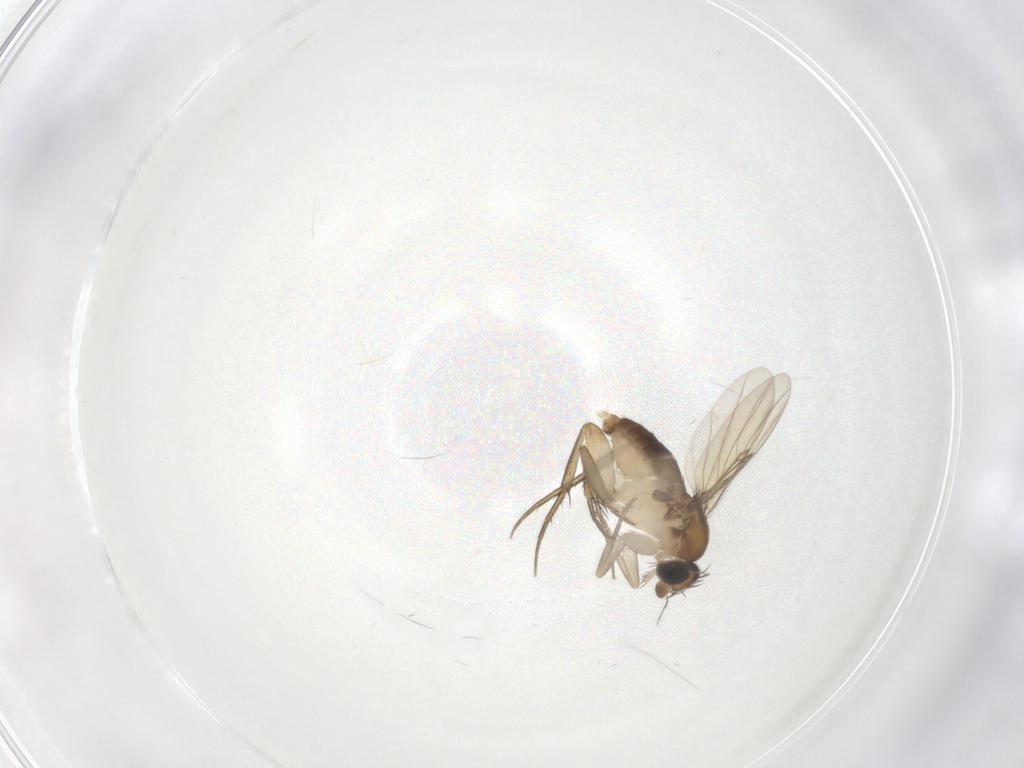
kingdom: Animalia
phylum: Arthropoda
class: Insecta
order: Diptera
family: Phoridae
